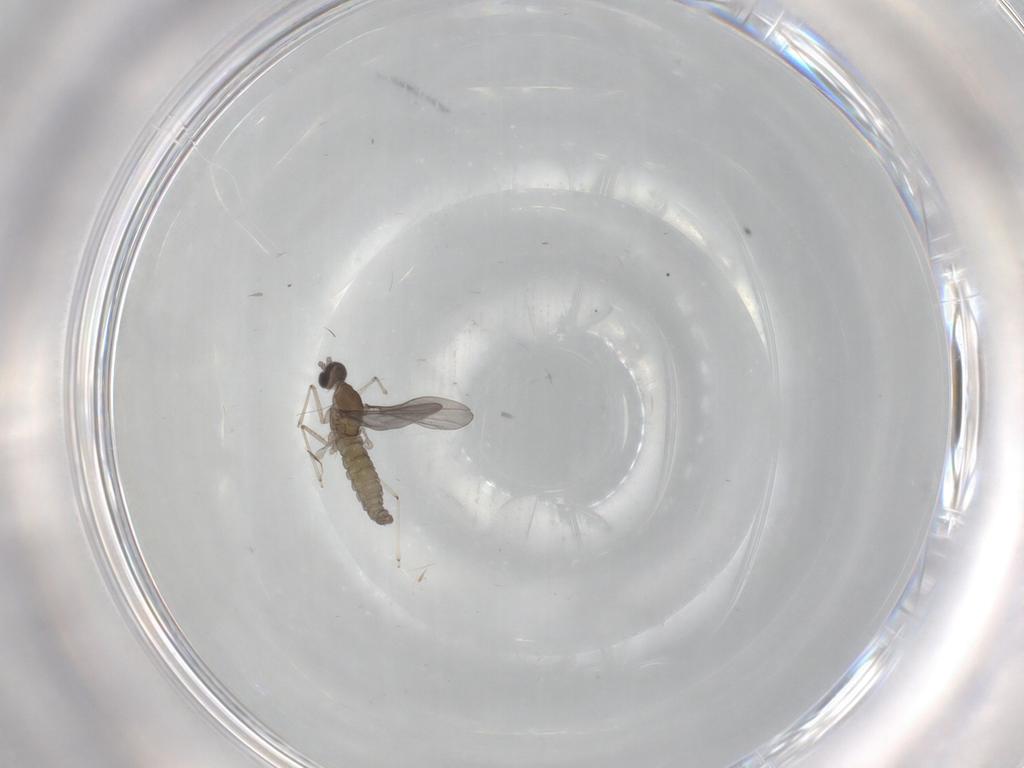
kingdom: Animalia
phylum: Arthropoda
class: Insecta
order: Diptera
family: Cecidomyiidae
